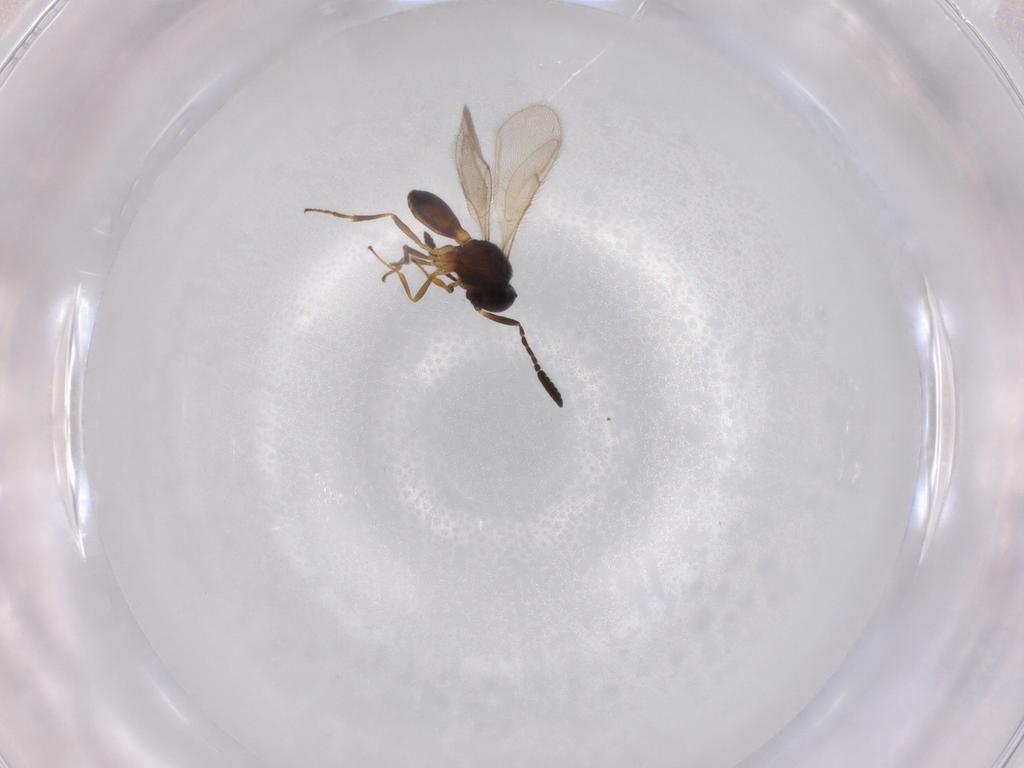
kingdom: Animalia
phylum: Arthropoda
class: Insecta
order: Hymenoptera
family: Scelionidae
